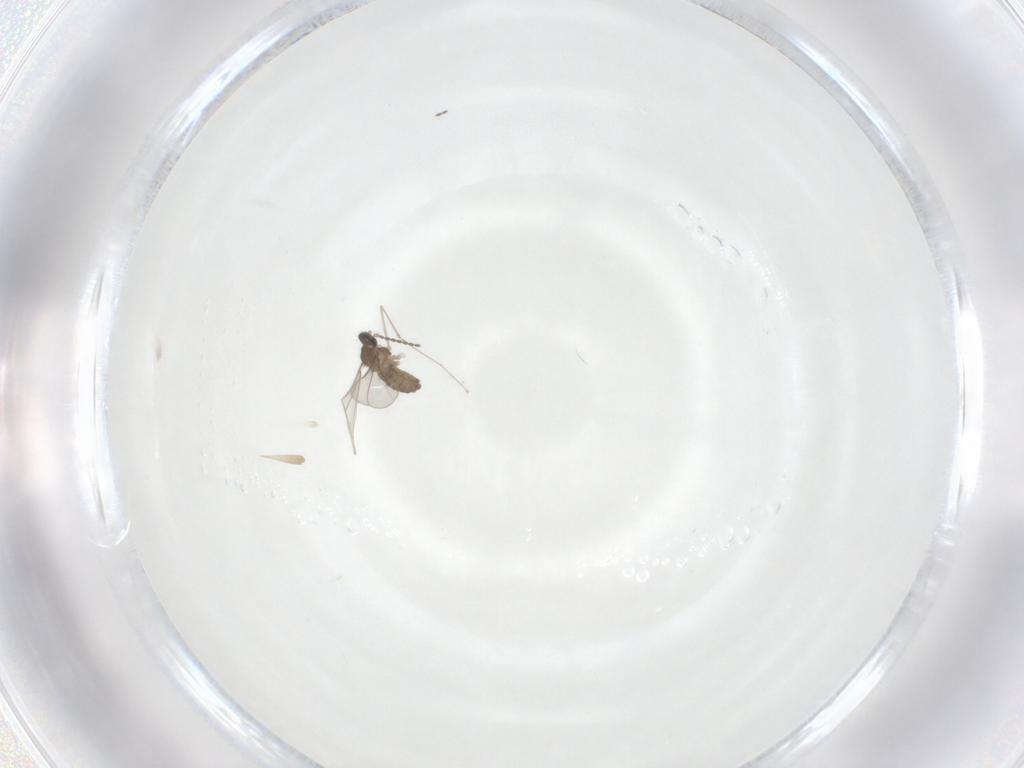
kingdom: Animalia
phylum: Arthropoda
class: Insecta
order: Diptera
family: Cecidomyiidae
